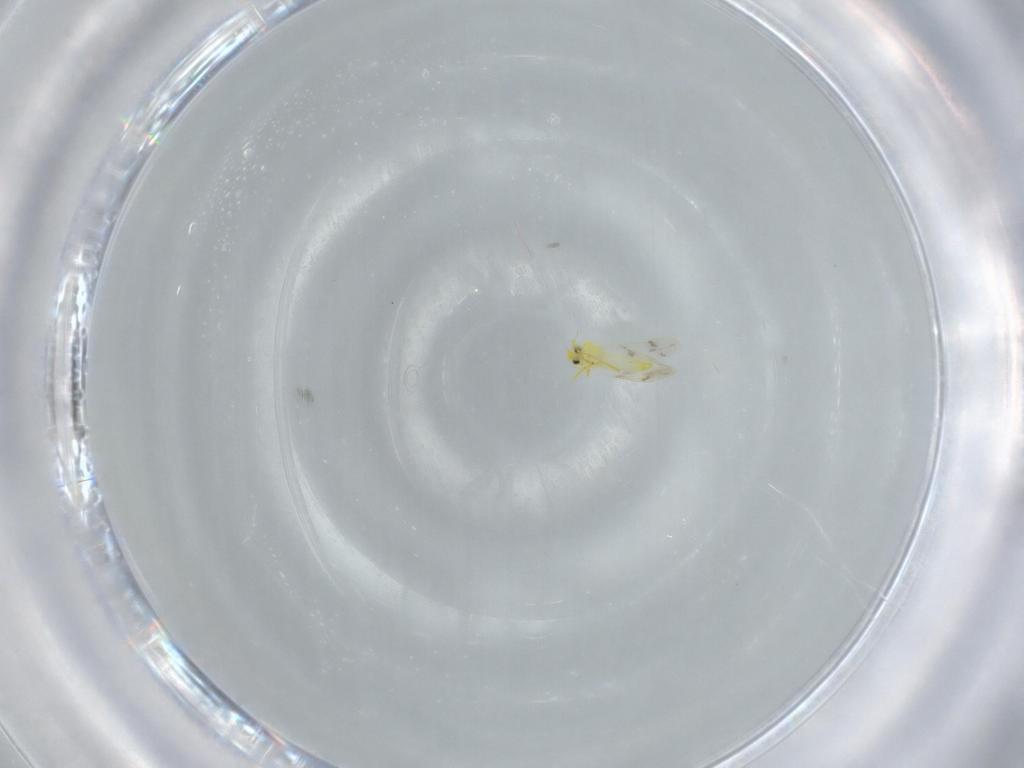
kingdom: Animalia
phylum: Arthropoda
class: Insecta
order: Hemiptera
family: Aleyrodidae
